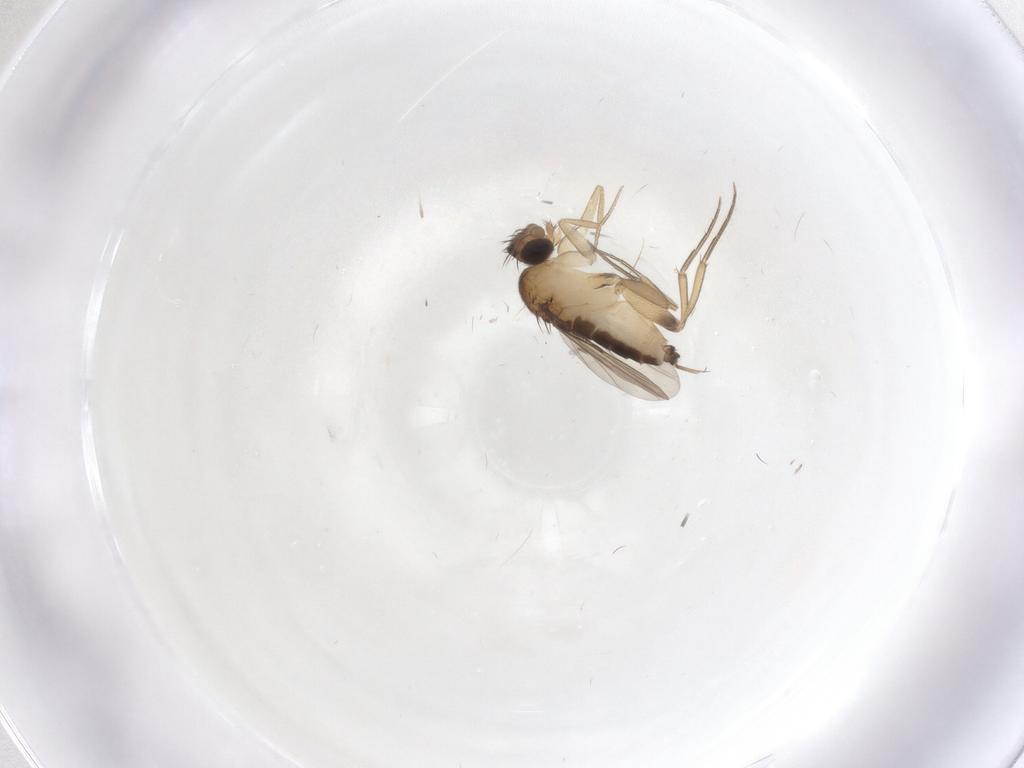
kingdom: Animalia
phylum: Arthropoda
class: Insecta
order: Diptera
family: Phoridae
